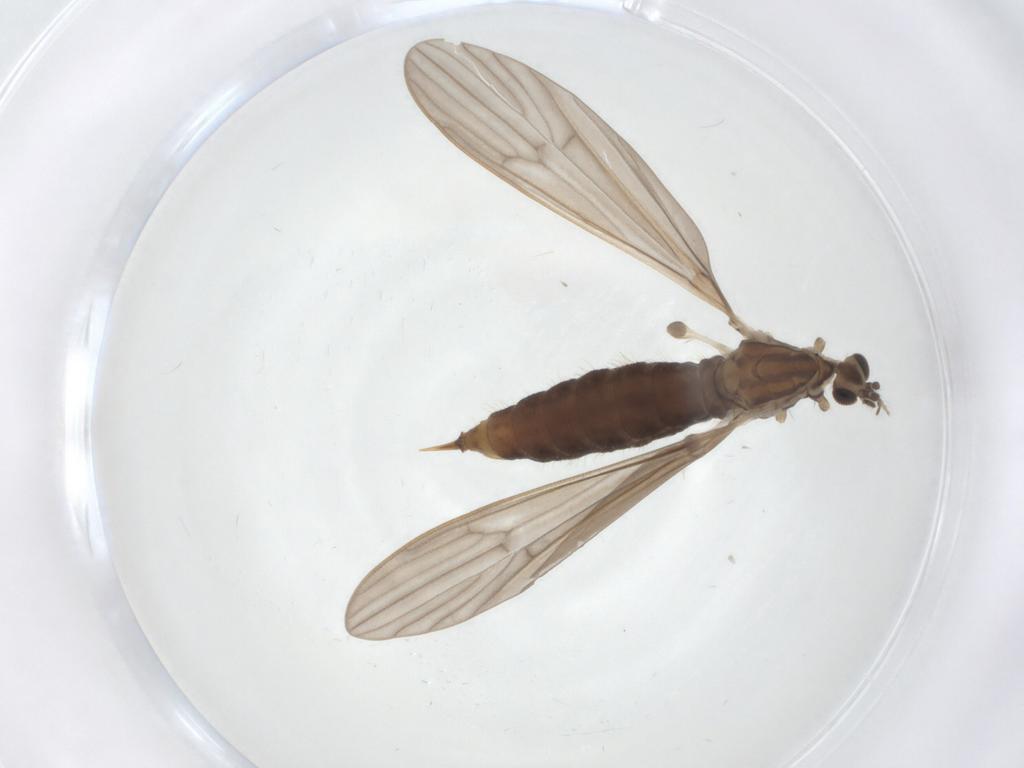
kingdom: Animalia
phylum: Arthropoda
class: Insecta
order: Diptera
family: Limoniidae
